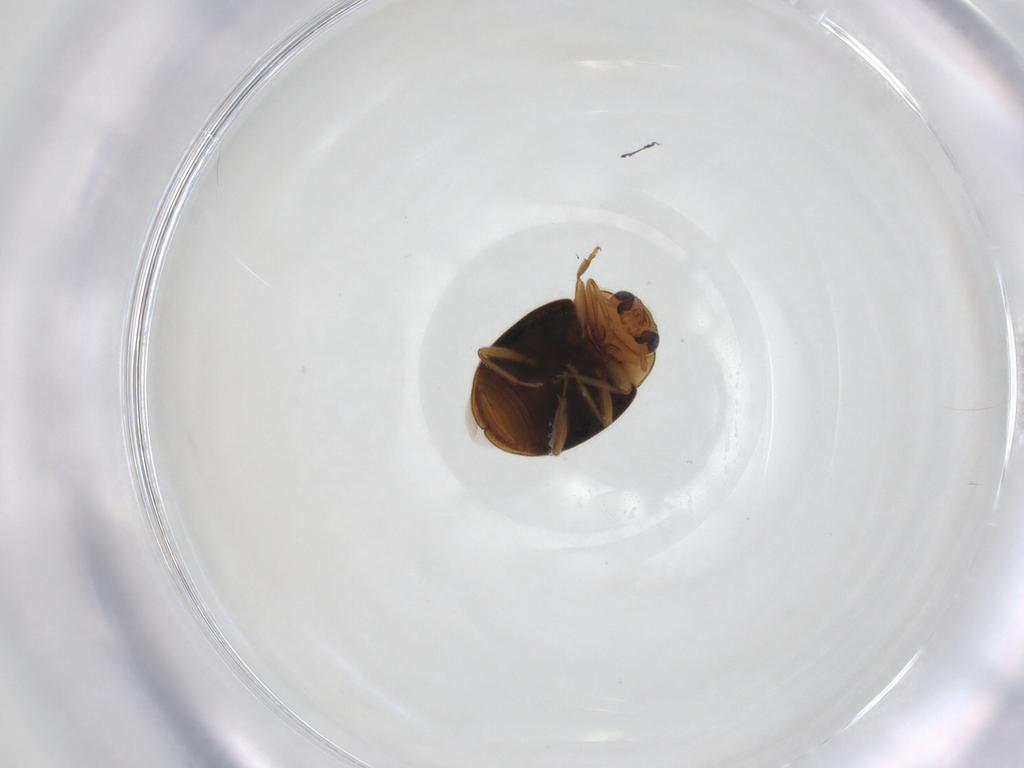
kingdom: Animalia
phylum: Arthropoda
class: Insecta
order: Coleoptera
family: Coccinellidae
